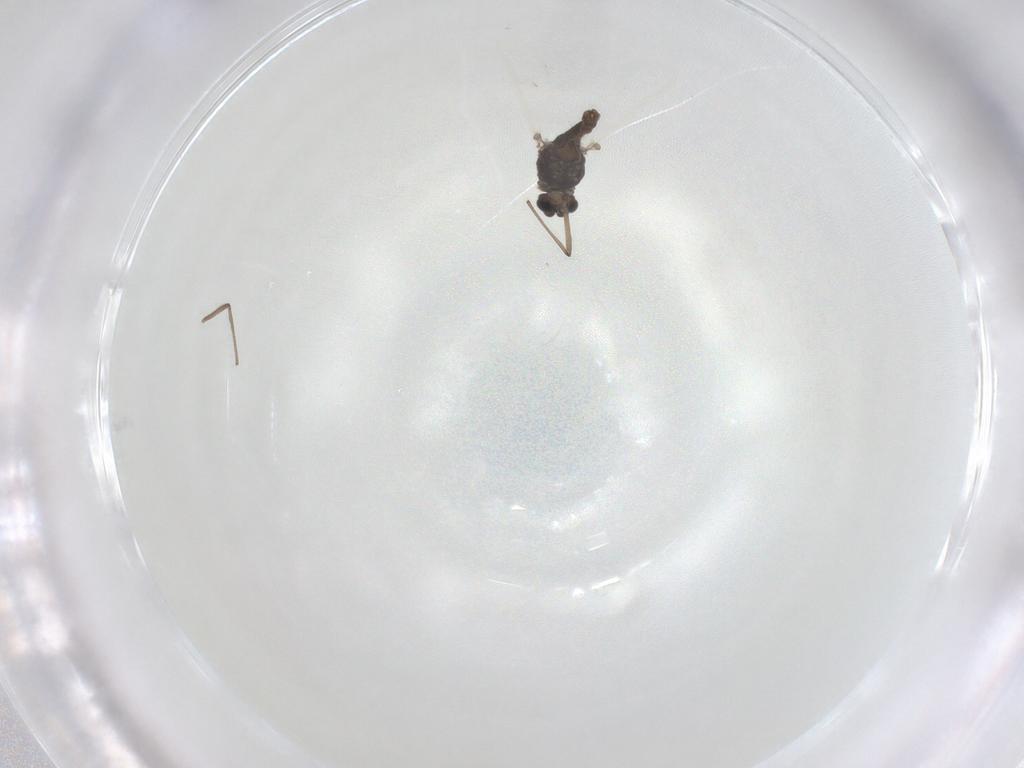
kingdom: Animalia
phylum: Arthropoda
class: Insecta
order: Diptera
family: Chironomidae
